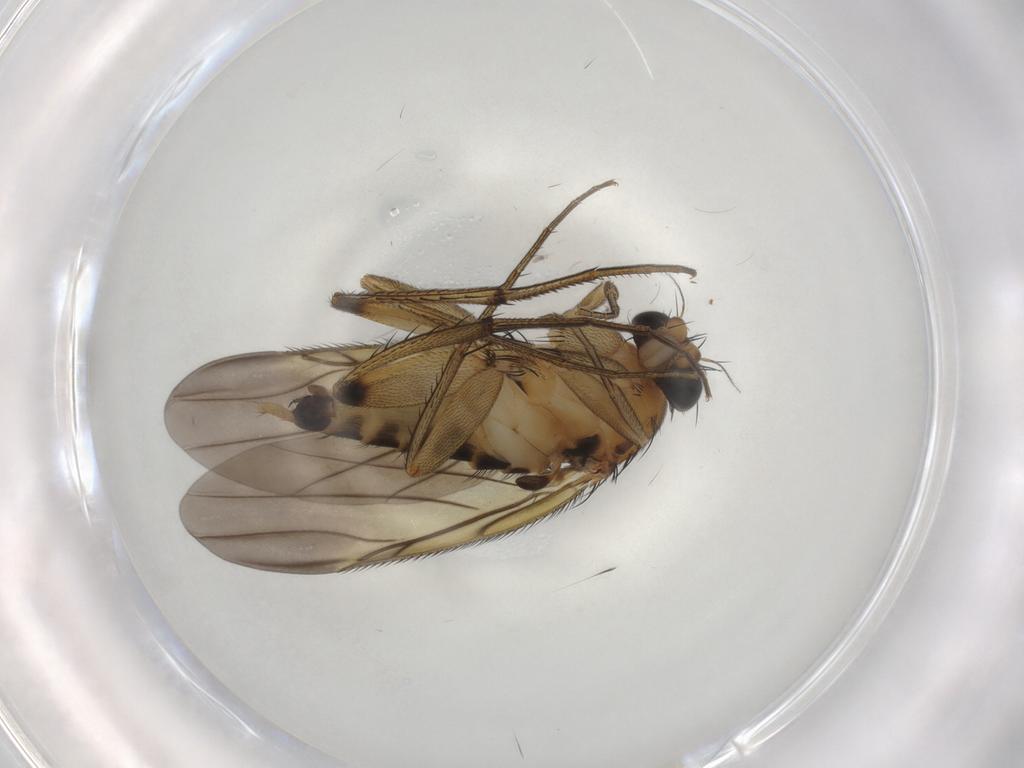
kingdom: Animalia
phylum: Arthropoda
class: Insecta
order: Diptera
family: Phoridae
